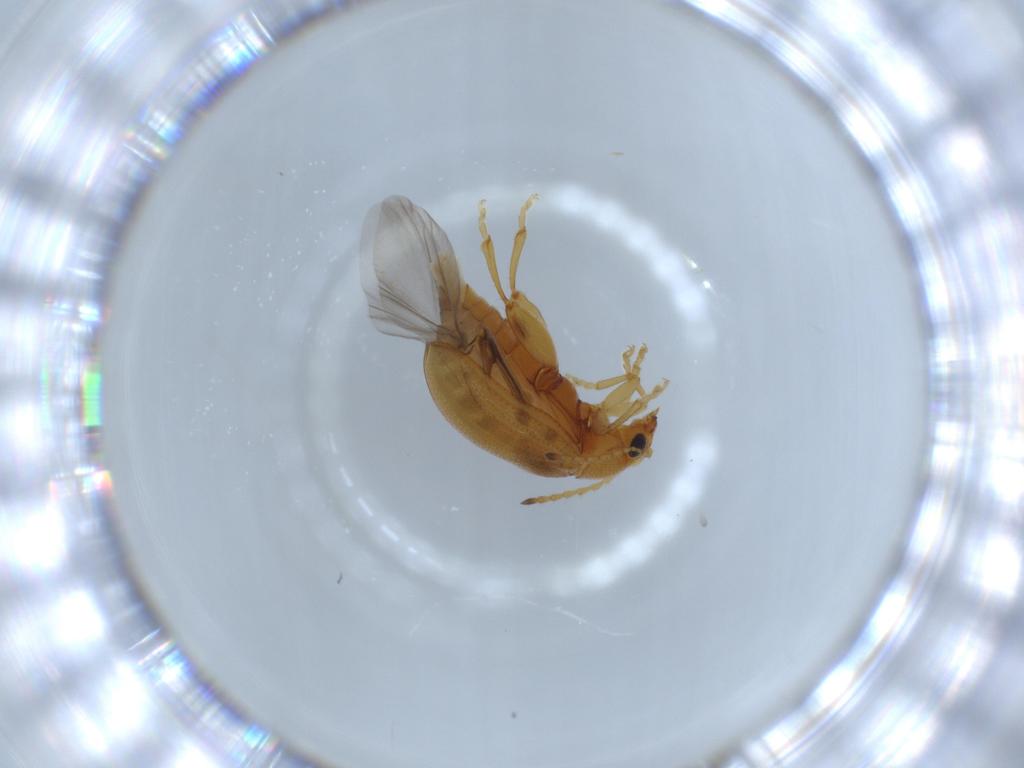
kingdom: Animalia
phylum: Arthropoda
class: Insecta
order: Coleoptera
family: Chrysomelidae
